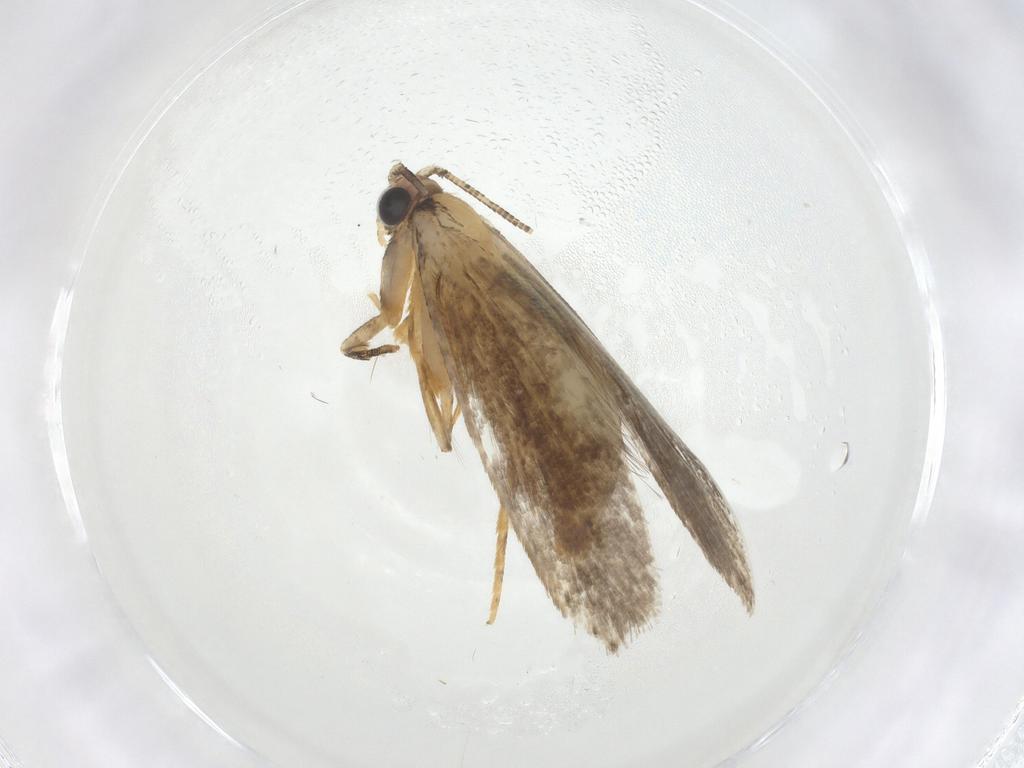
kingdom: Animalia
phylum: Arthropoda
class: Insecta
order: Lepidoptera
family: Tineidae
